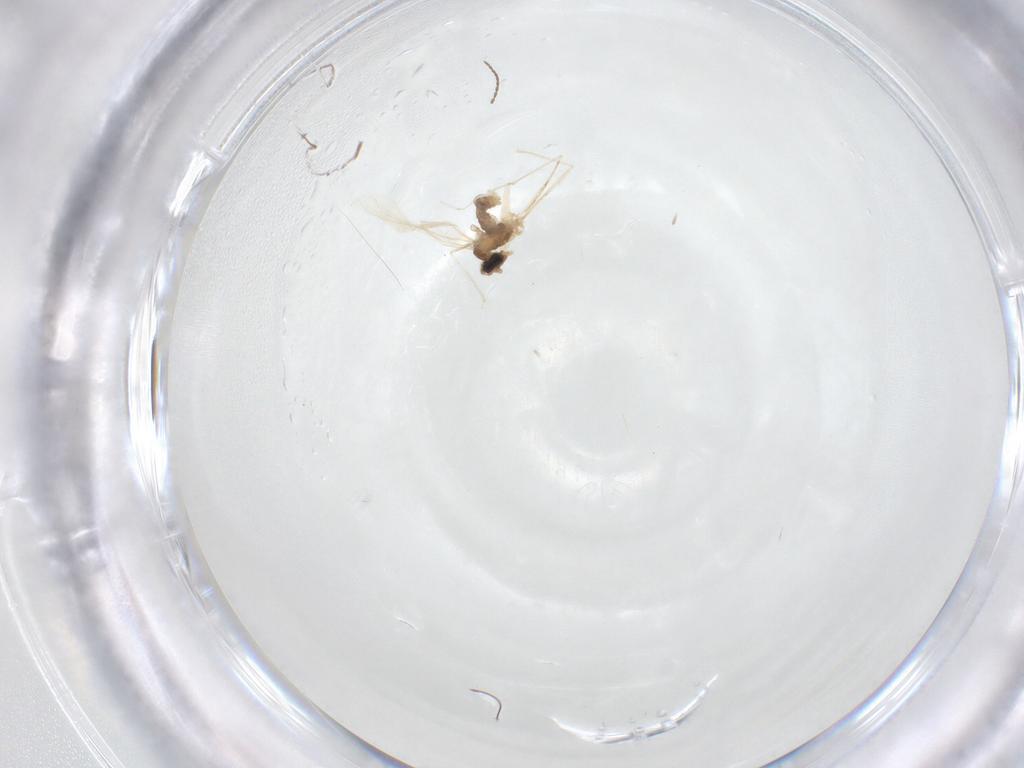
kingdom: Animalia
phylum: Arthropoda
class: Insecta
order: Diptera
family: Cecidomyiidae
